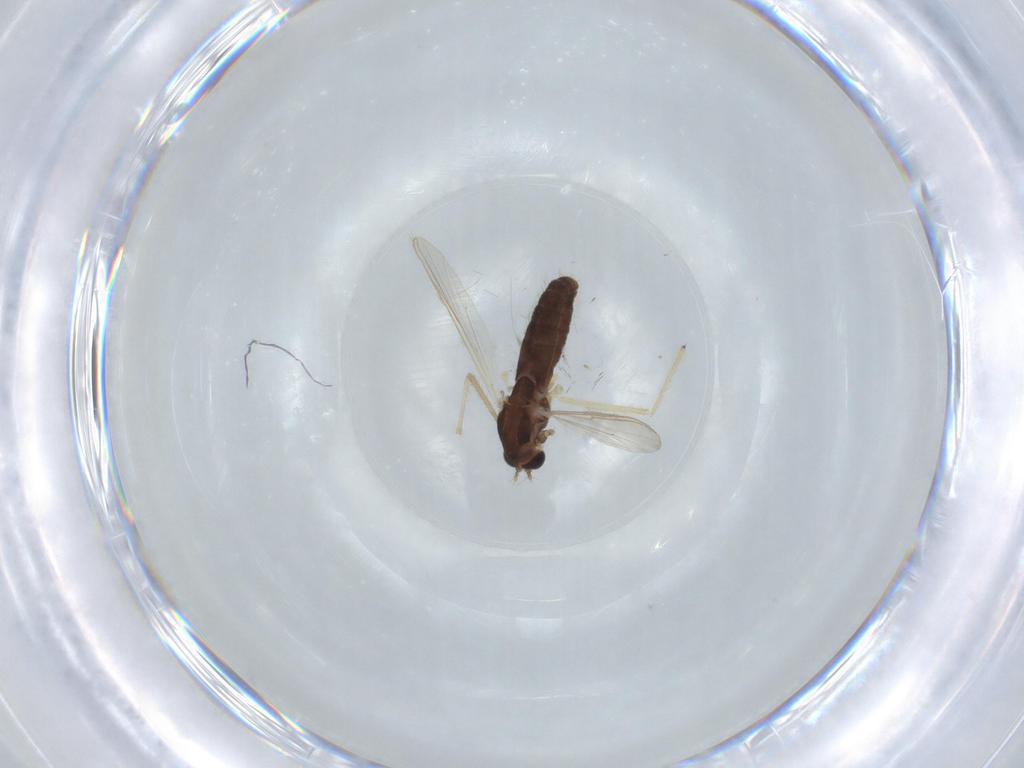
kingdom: Animalia
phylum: Arthropoda
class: Insecta
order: Diptera
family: Chironomidae
